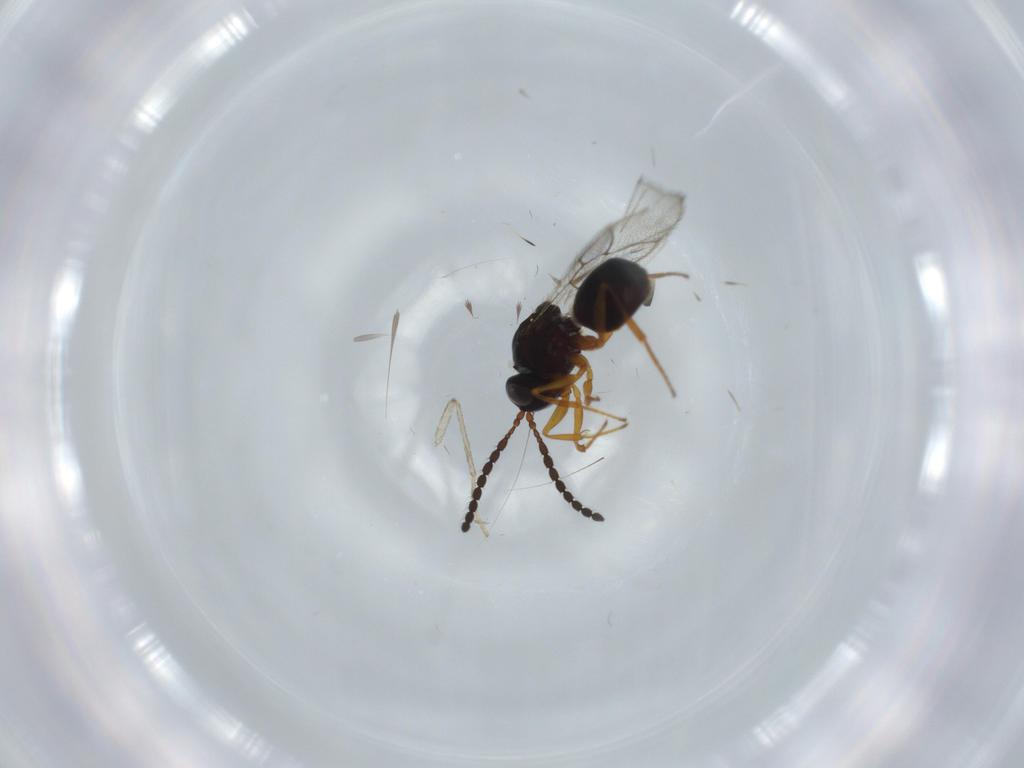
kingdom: Animalia
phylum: Arthropoda
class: Insecta
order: Hymenoptera
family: Figitidae
